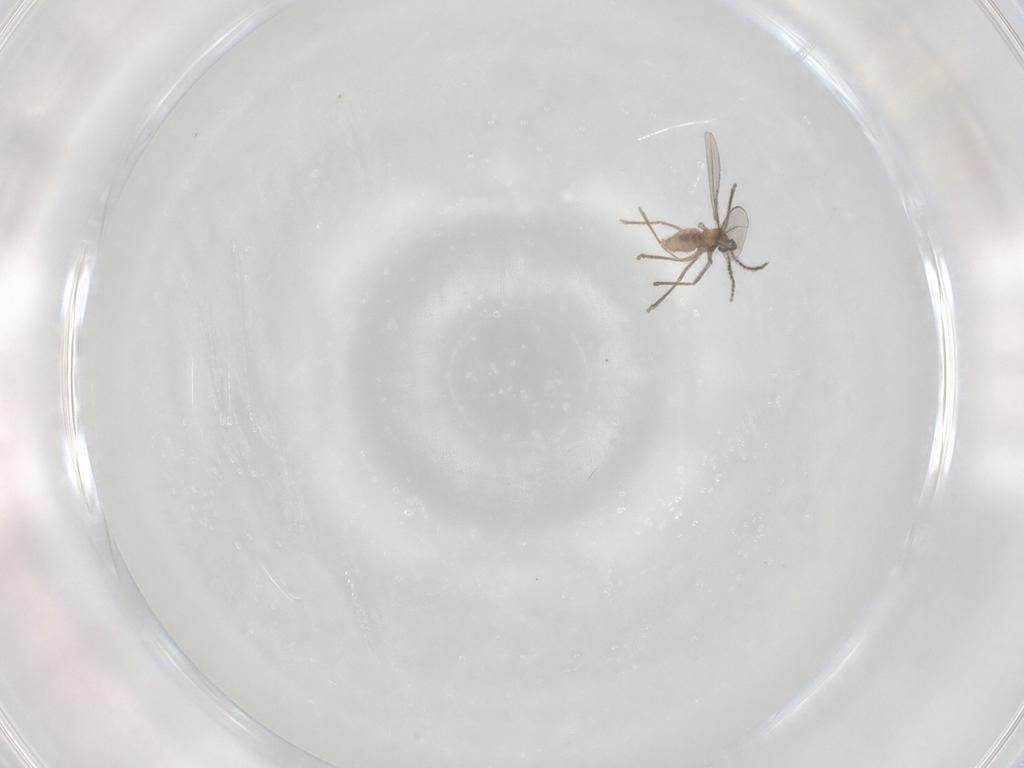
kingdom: Animalia
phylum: Arthropoda
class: Insecta
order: Diptera
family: Cecidomyiidae
